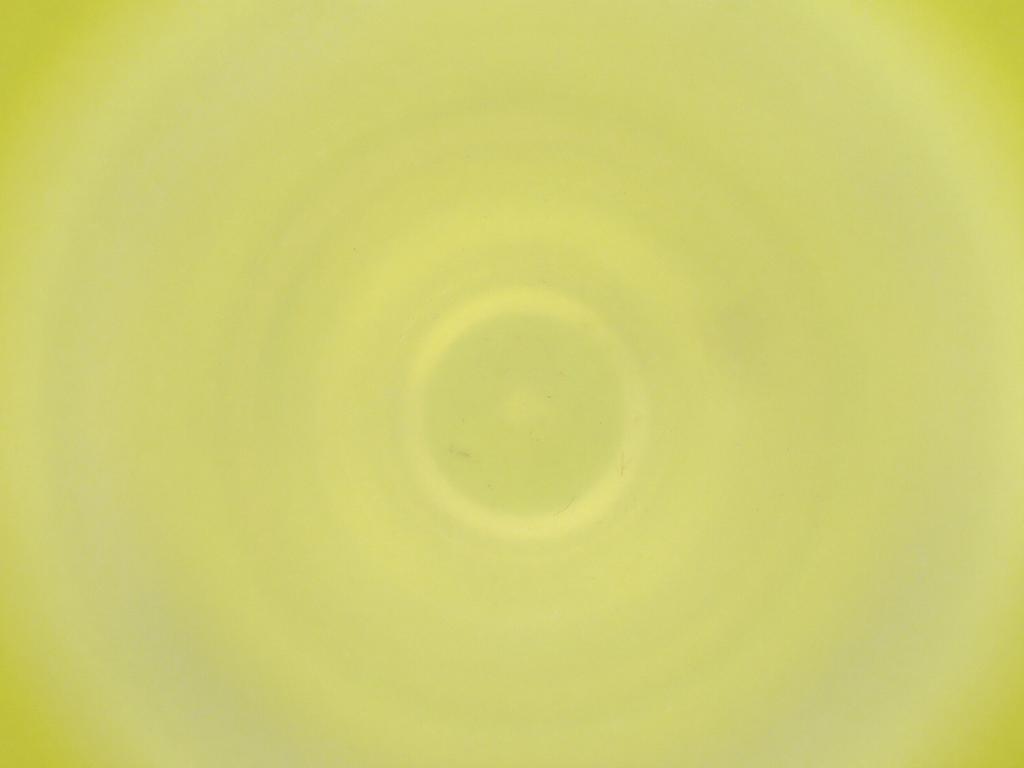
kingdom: Animalia
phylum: Arthropoda
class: Insecta
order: Diptera
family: Cecidomyiidae
